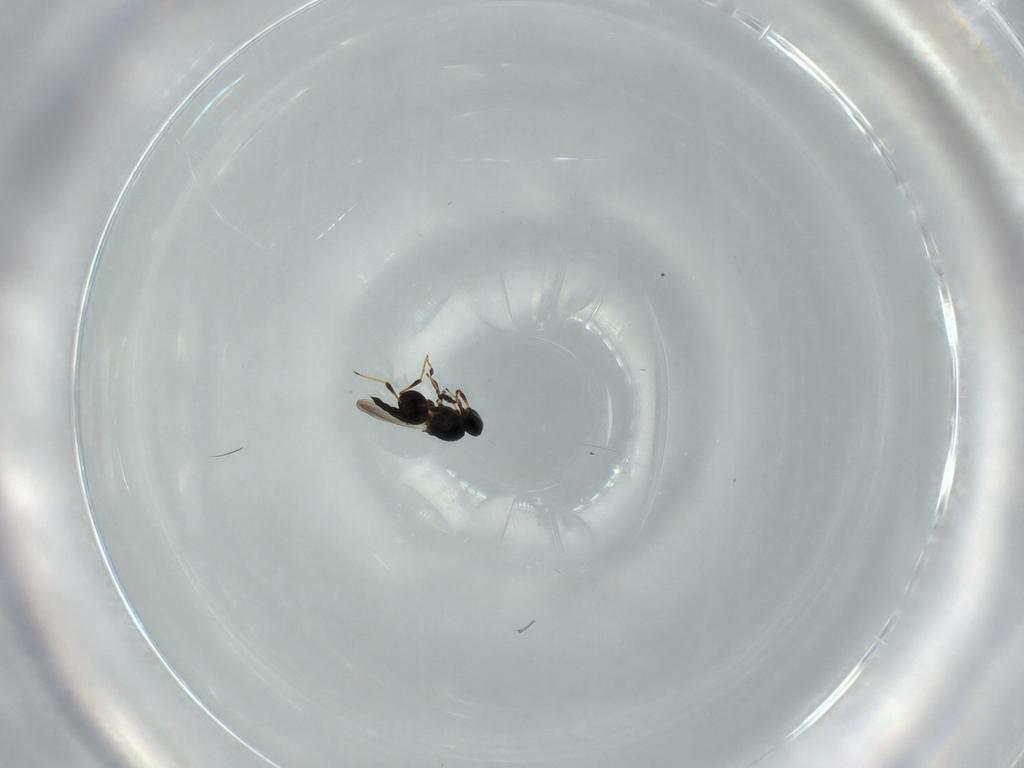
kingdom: Animalia
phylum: Arthropoda
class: Insecta
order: Hymenoptera
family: Platygastridae
